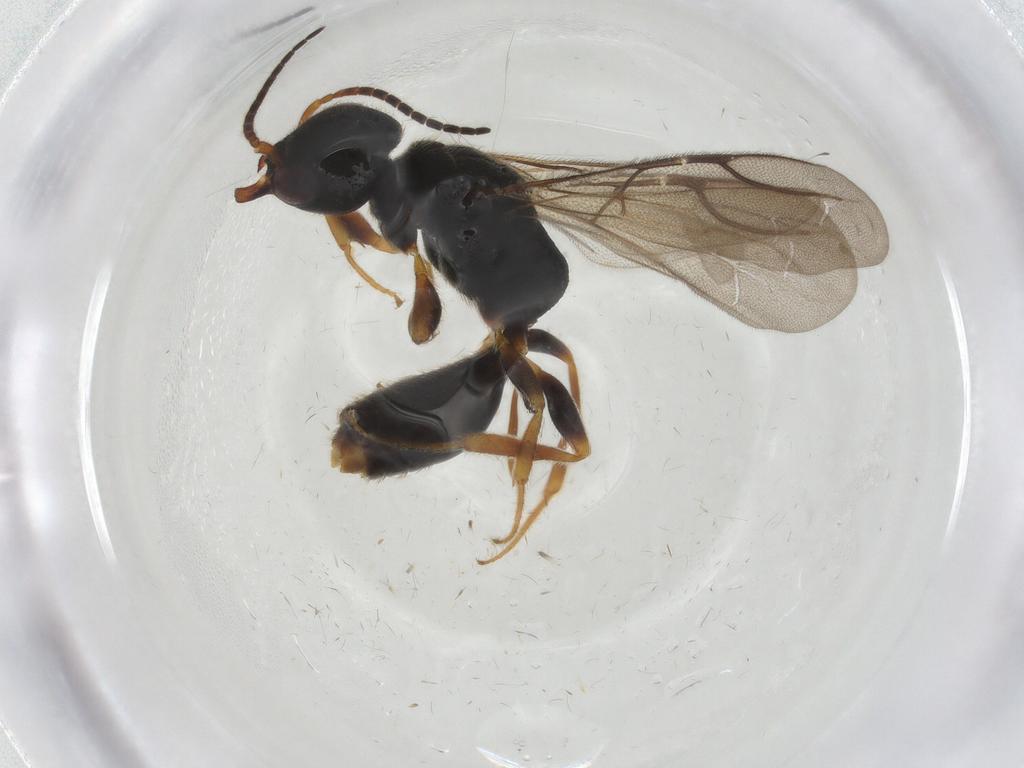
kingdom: Animalia
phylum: Arthropoda
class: Insecta
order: Hymenoptera
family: Bethylidae
